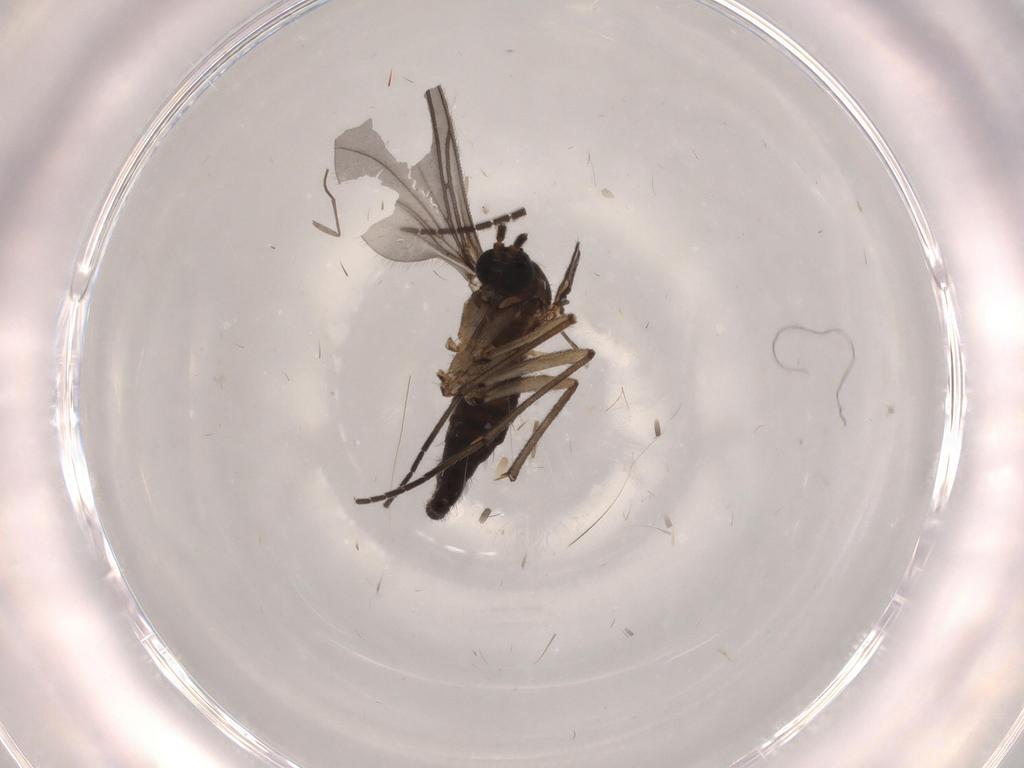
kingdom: Animalia
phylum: Arthropoda
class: Insecta
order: Diptera
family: Sciaridae
